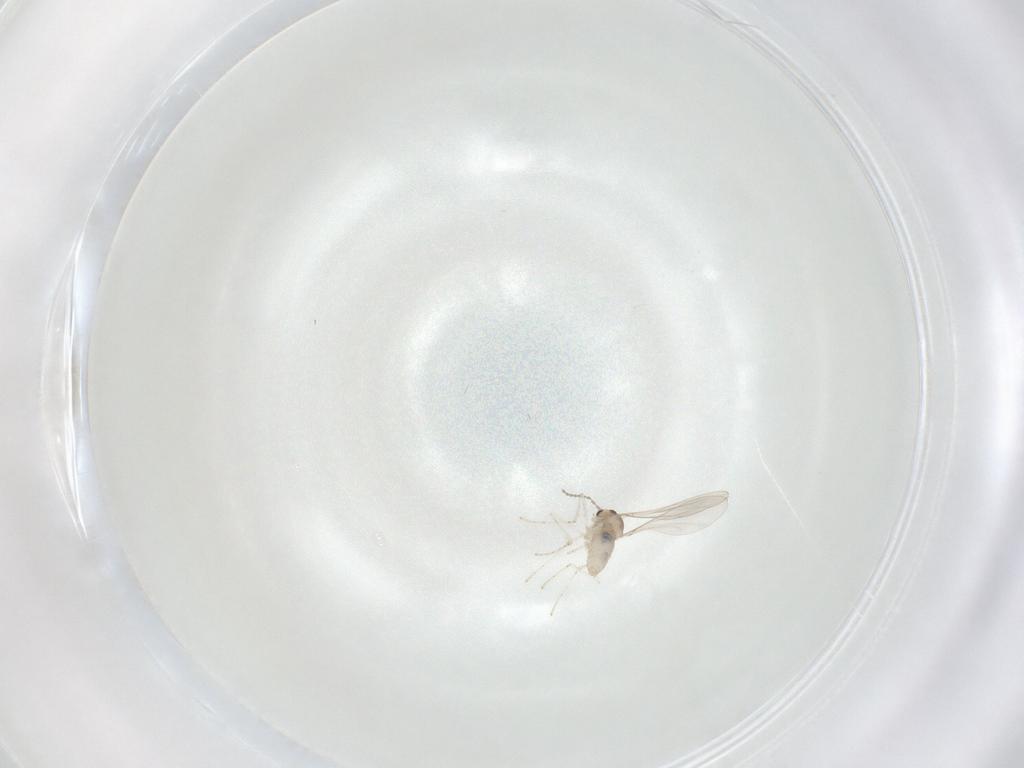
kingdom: Animalia
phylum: Arthropoda
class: Insecta
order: Diptera
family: Cecidomyiidae
